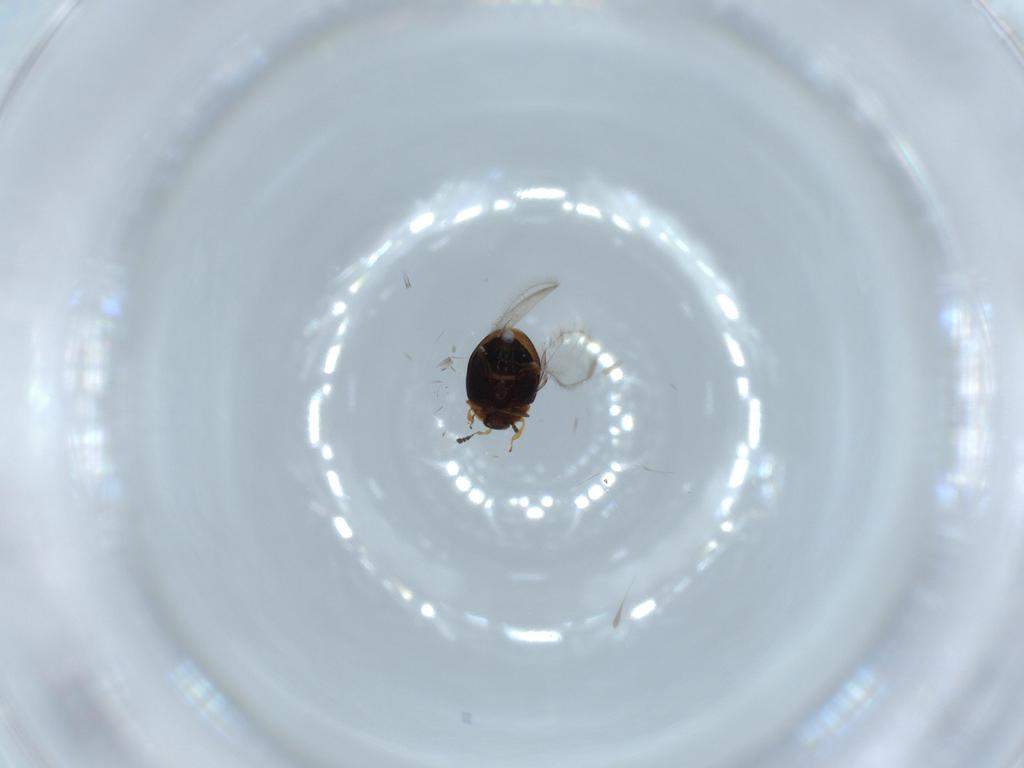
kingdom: Animalia
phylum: Arthropoda
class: Insecta
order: Coleoptera
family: Corylophidae
